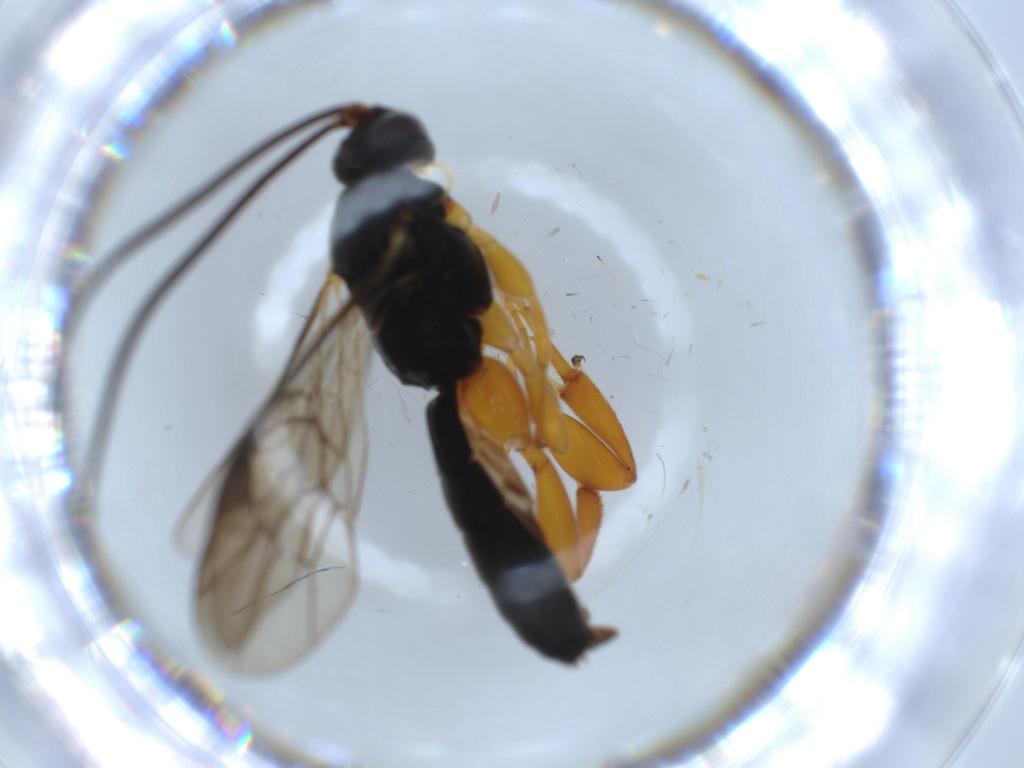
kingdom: Animalia
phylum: Arthropoda
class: Insecta
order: Hymenoptera
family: Ichneumonidae
